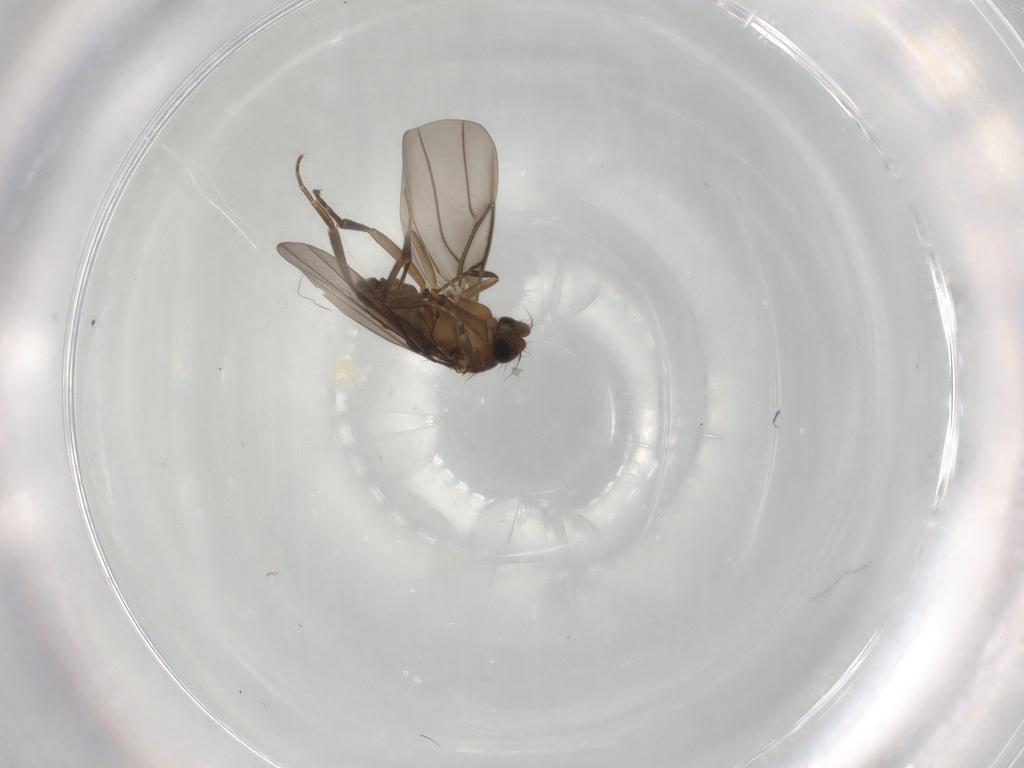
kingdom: Animalia
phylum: Arthropoda
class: Insecta
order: Diptera
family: Phoridae
